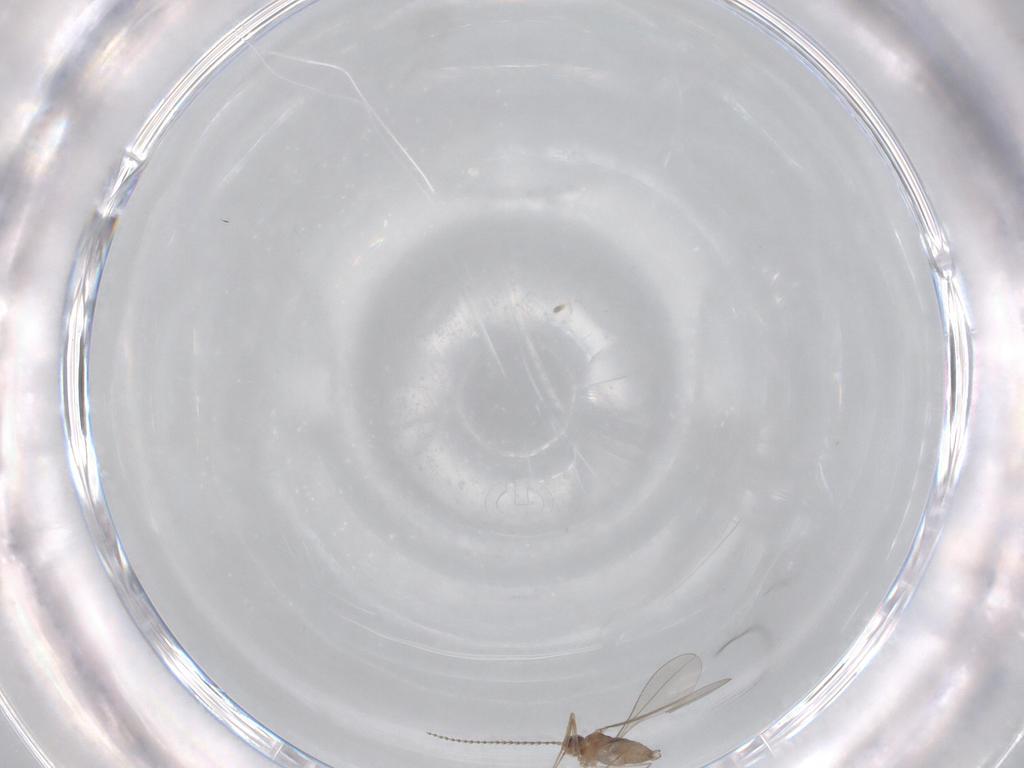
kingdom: Animalia
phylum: Arthropoda
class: Insecta
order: Diptera
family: Cecidomyiidae
